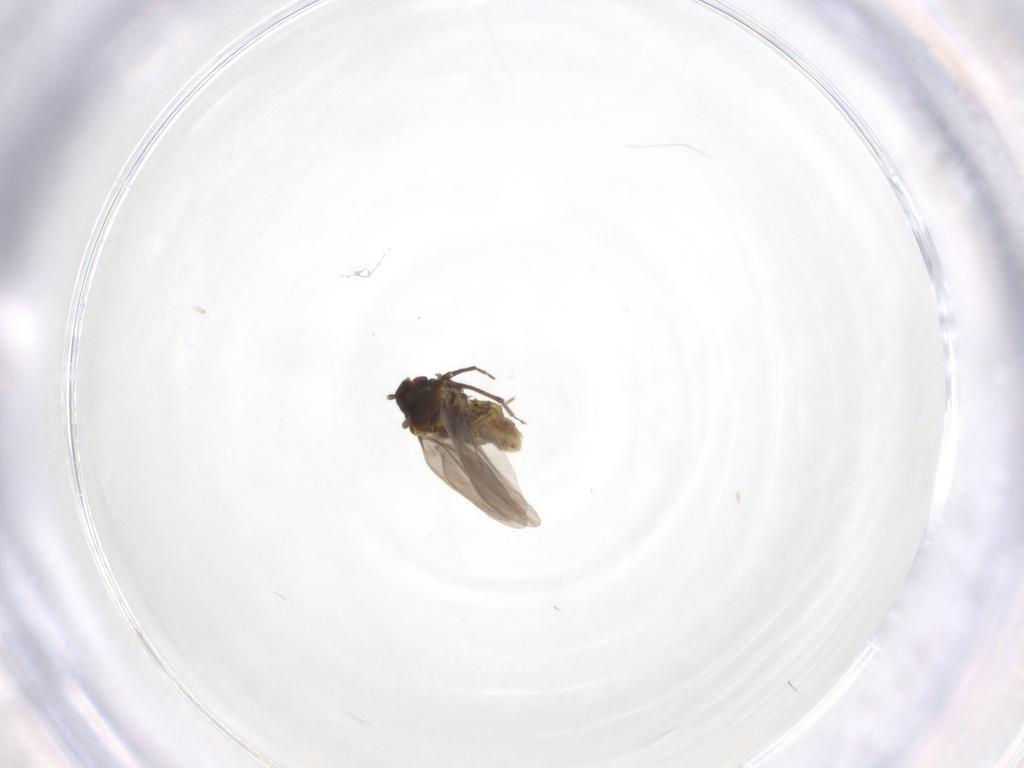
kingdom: Animalia
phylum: Arthropoda
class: Insecta
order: Hemiptera
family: Aleyrodidae
